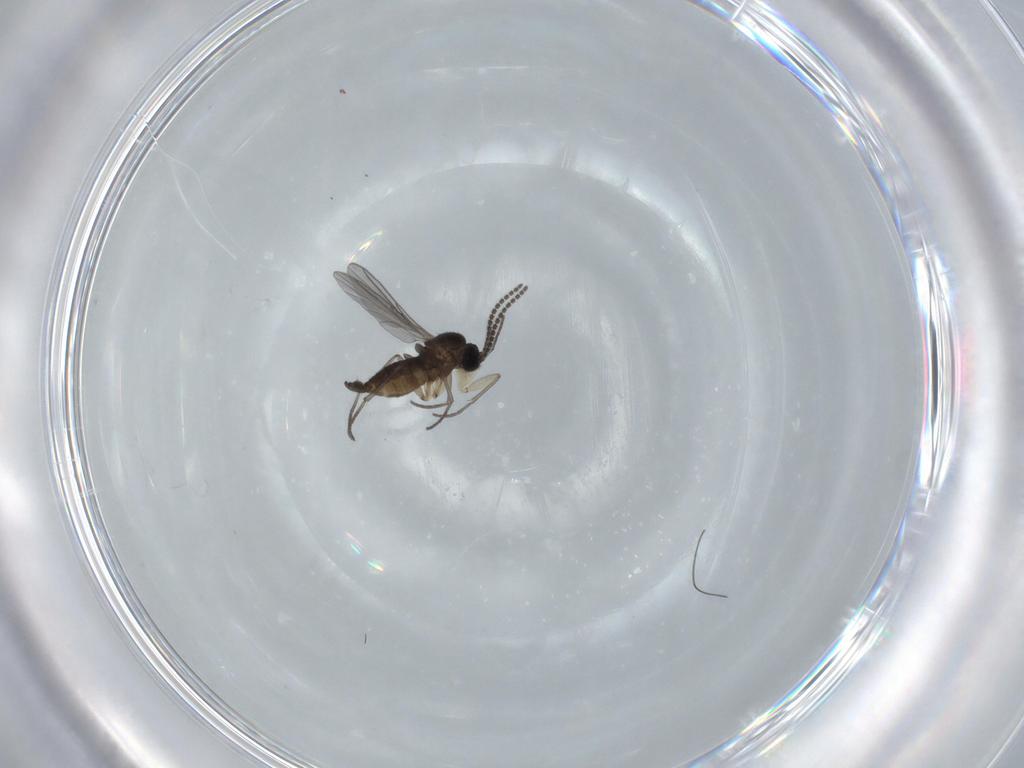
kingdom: Animalia
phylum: Arthropoda
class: Insecta
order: Diptera
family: Sciaridae
